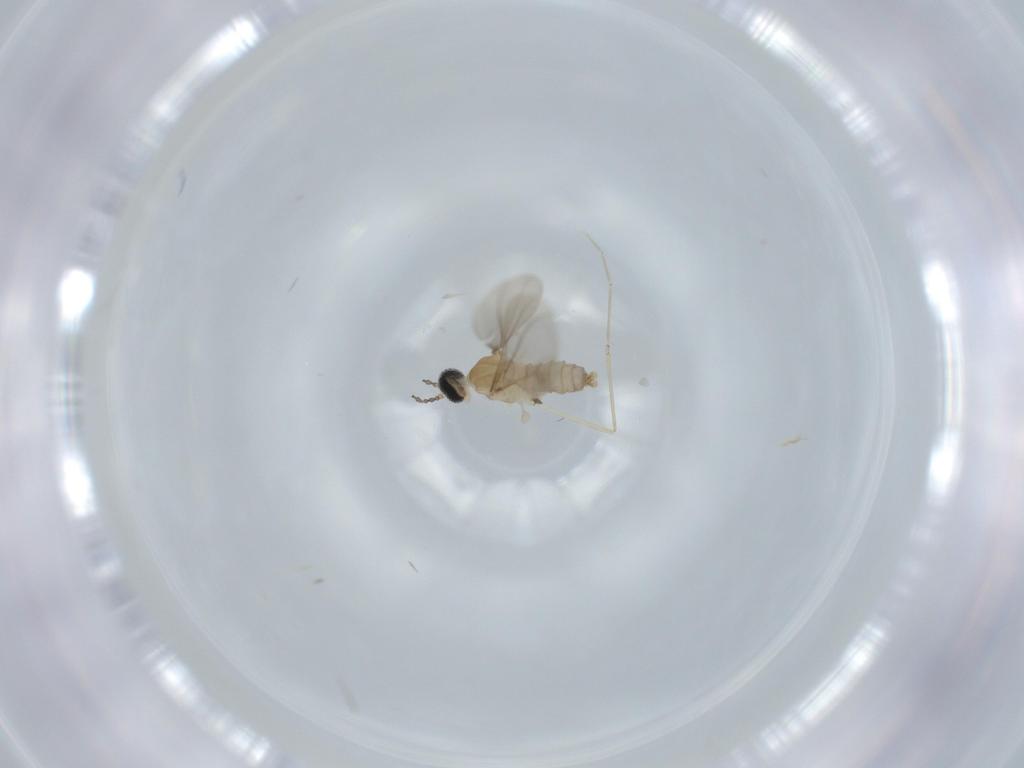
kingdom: Animalia
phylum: Arthropoda
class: Insecta
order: Diptera
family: Cecidomyiidae
